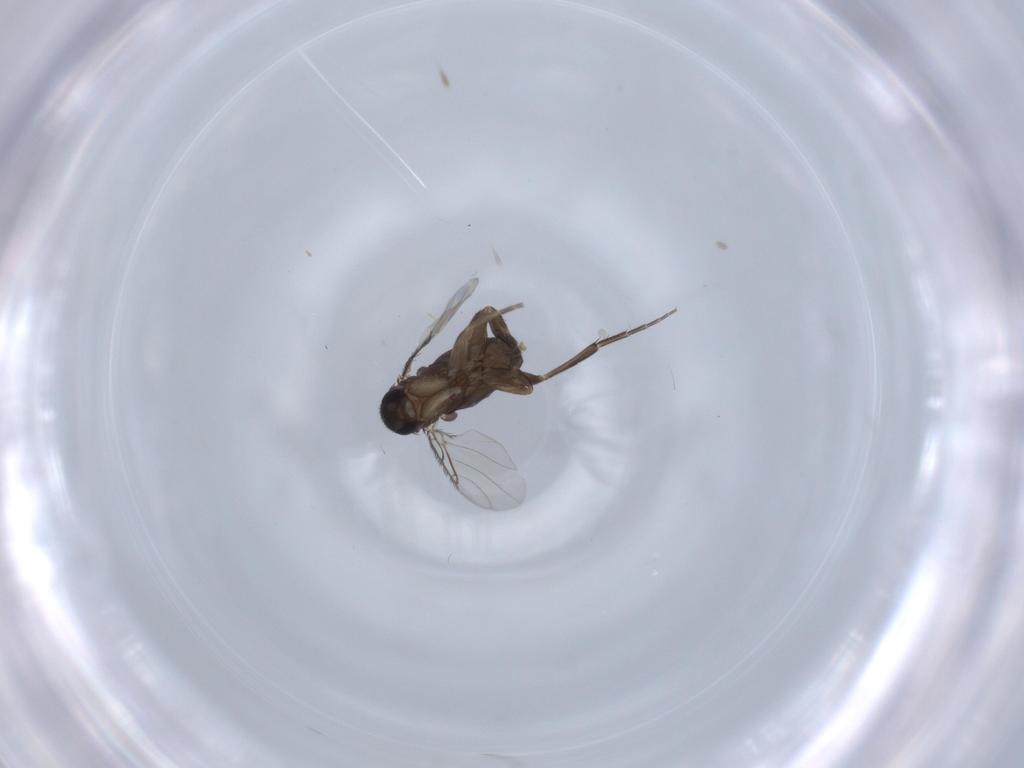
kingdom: Animalia
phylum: Arthropoda
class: Insecta
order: Diptera
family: Phoridae
